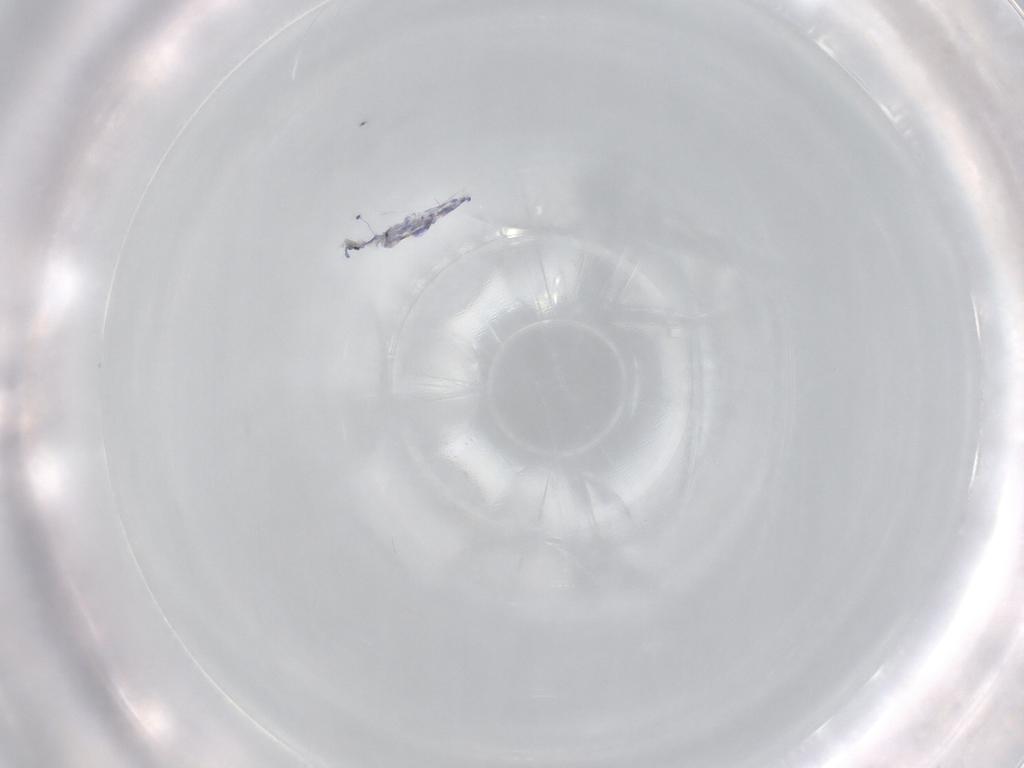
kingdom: Animalia
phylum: Arthropoda
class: Collembola
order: Entomobryomorpha
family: Entomobryidae
